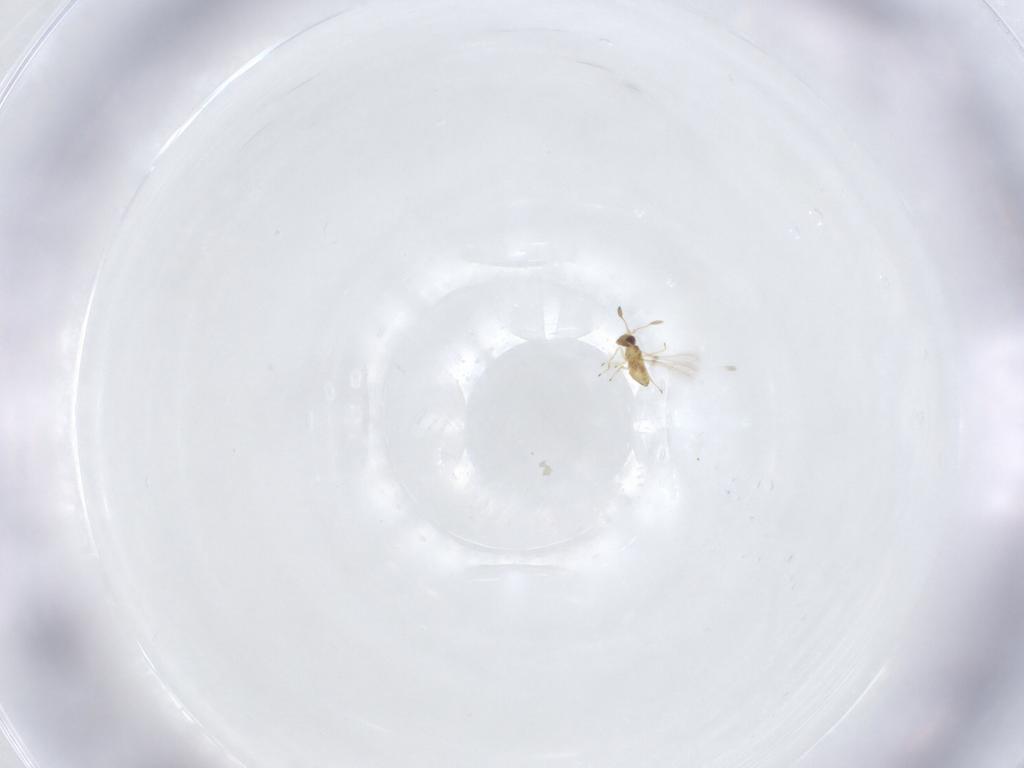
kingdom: Animalia
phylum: Arthropoda
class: Insecta
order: Hymenoptera
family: Mymaridae
